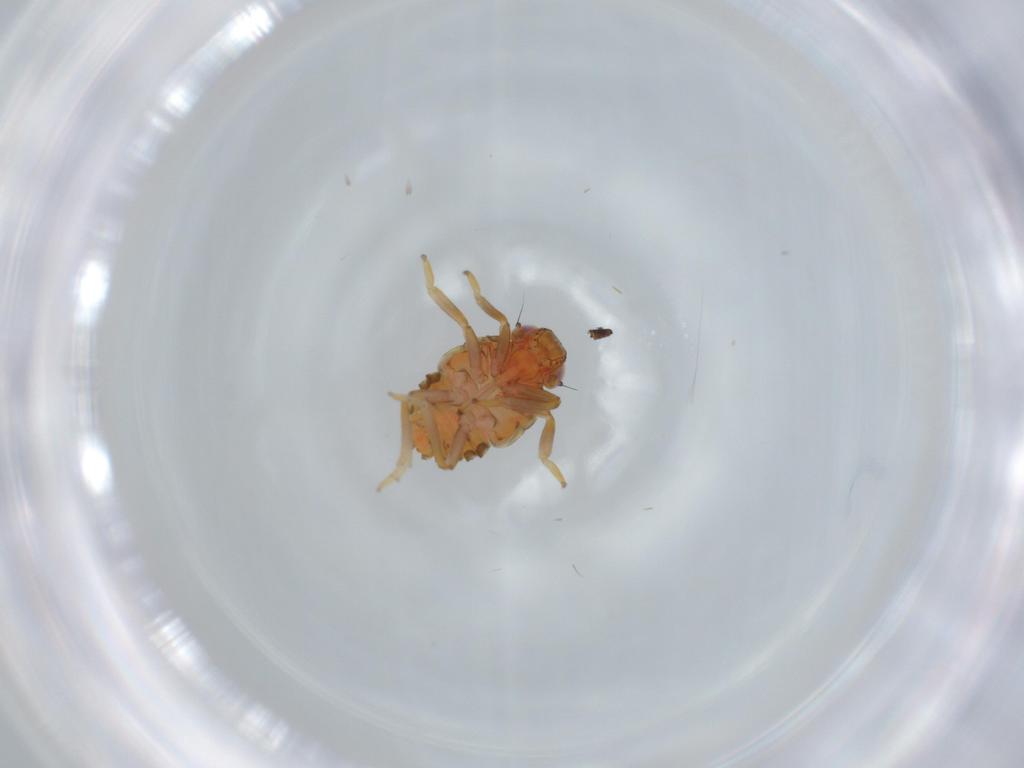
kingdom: Animalia
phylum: Arthropoda
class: Insecta
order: Hemiptera
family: Issidae
